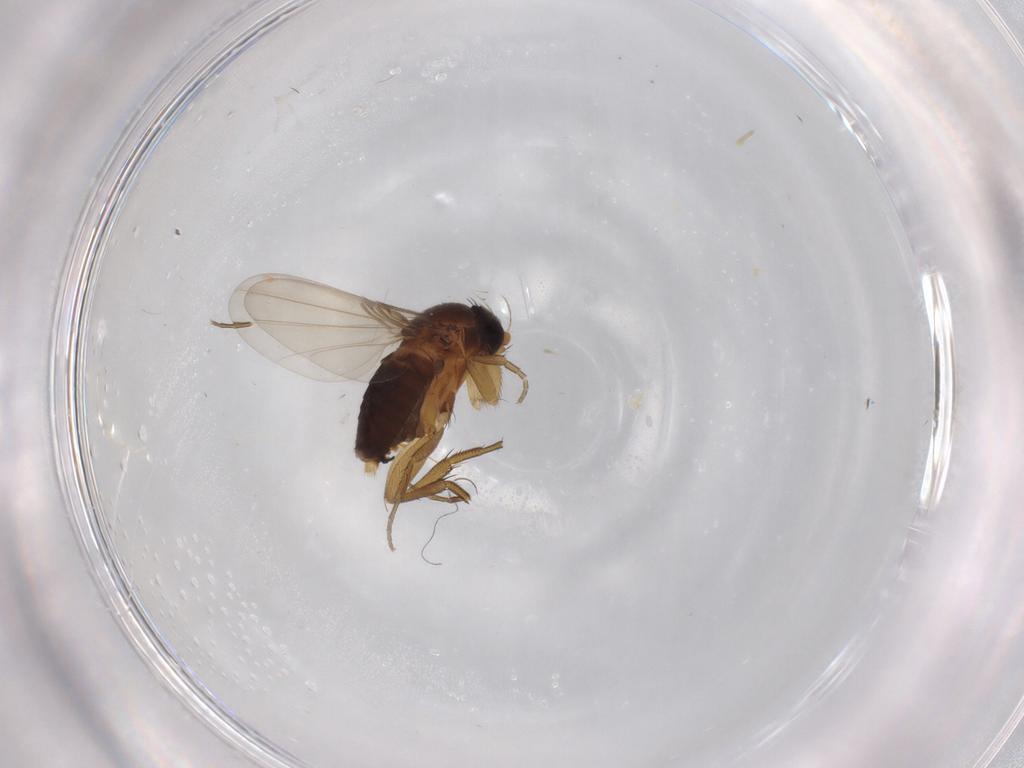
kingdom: Animalia
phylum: Arthropoda
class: Insecta
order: Diptera
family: Phoridae
